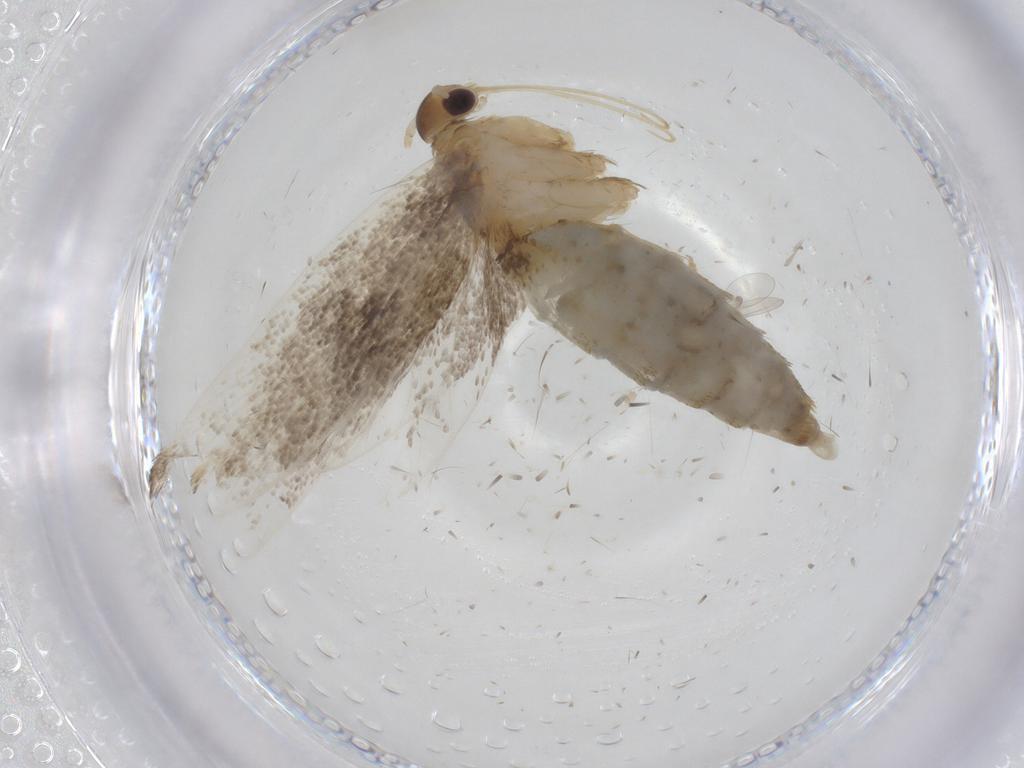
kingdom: Animalia
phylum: Arthropoda
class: Insecta
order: Lepidoptera
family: Lecithoceridae
